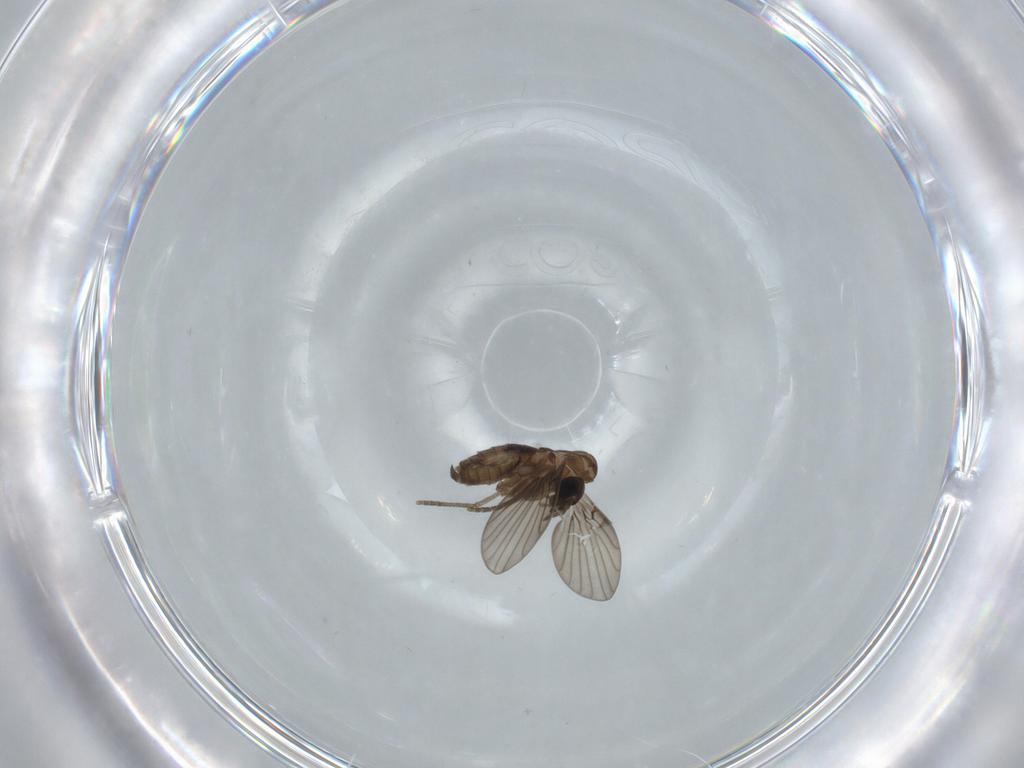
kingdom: Animalia
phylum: Arthropoda
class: Insecta
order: Diptera
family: Psychodidae
